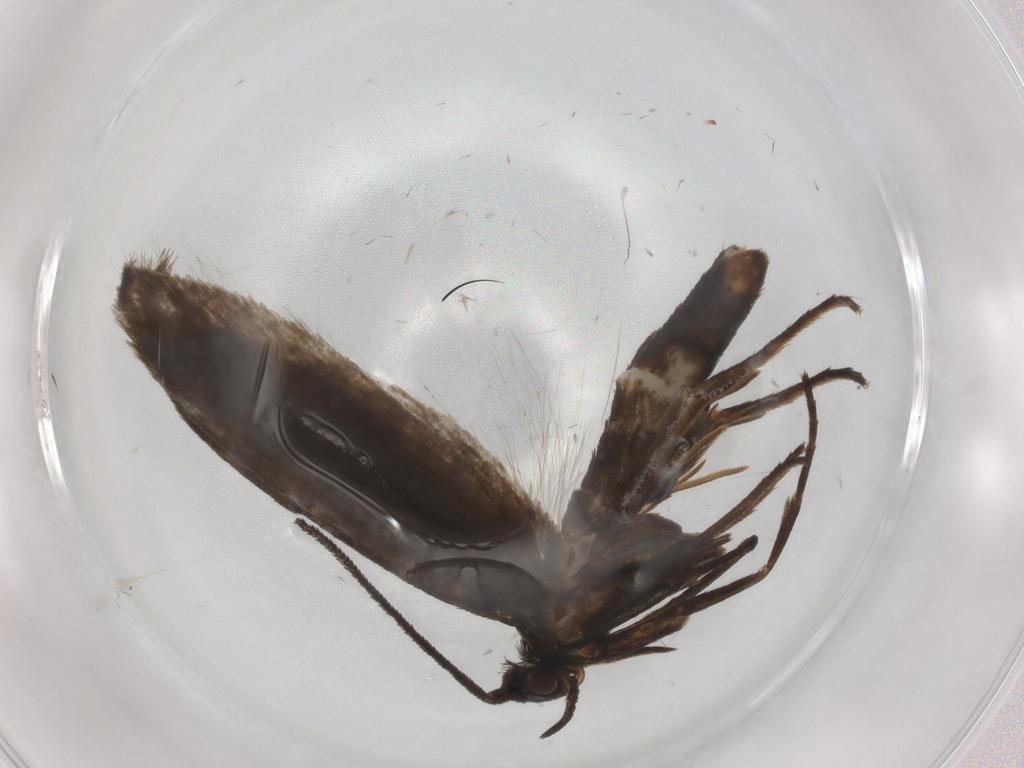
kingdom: Animalia
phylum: Arthropoda
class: Insecta
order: Lepidoptera
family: Argyresthiidae
